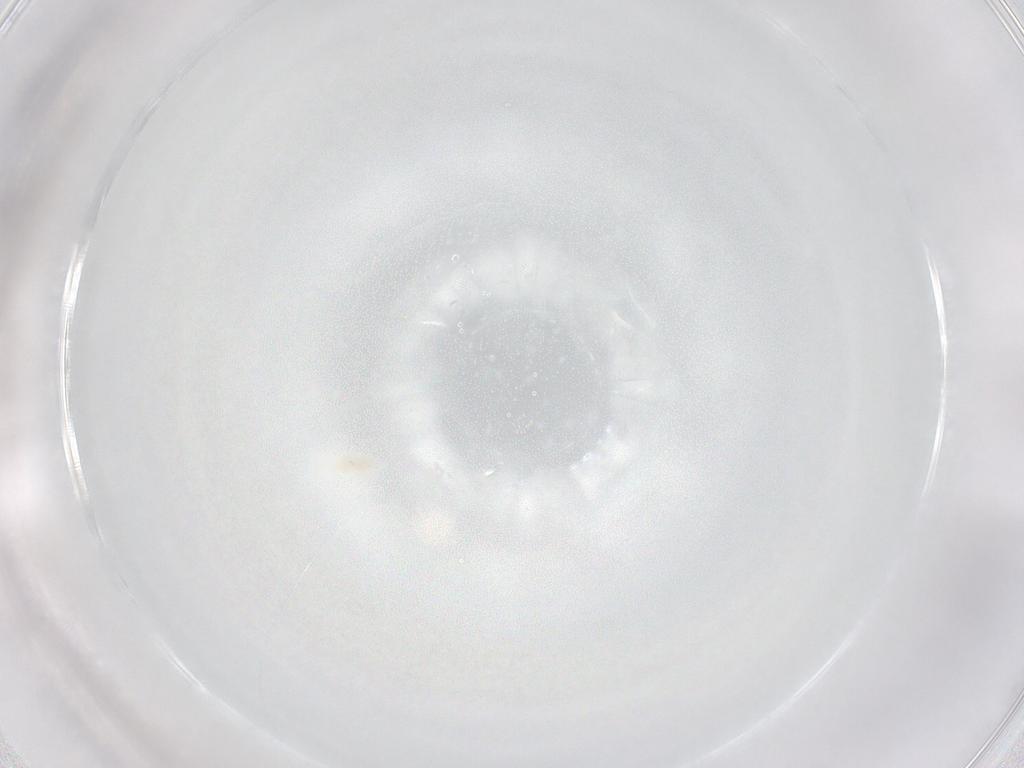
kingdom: Animalia
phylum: Arthropoda
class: Arachnida
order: Trombidiformes
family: Eupodidae
